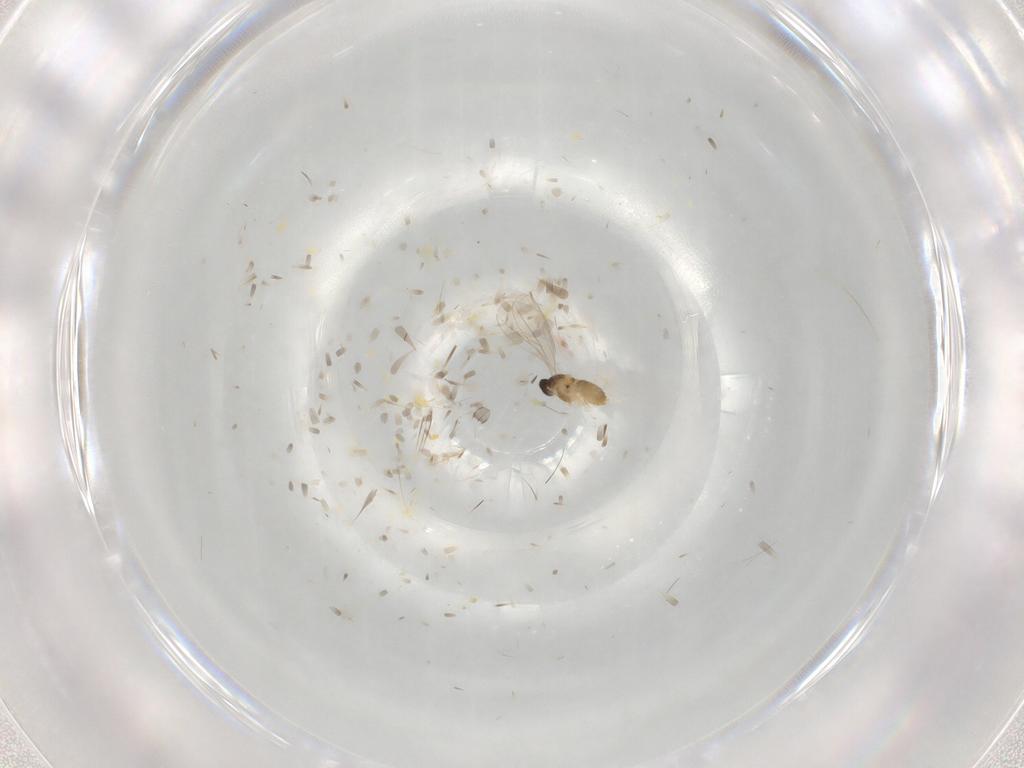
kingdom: Animalia
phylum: Arthropoda
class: Insecta
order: Diptera
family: Cecidomyiidae
